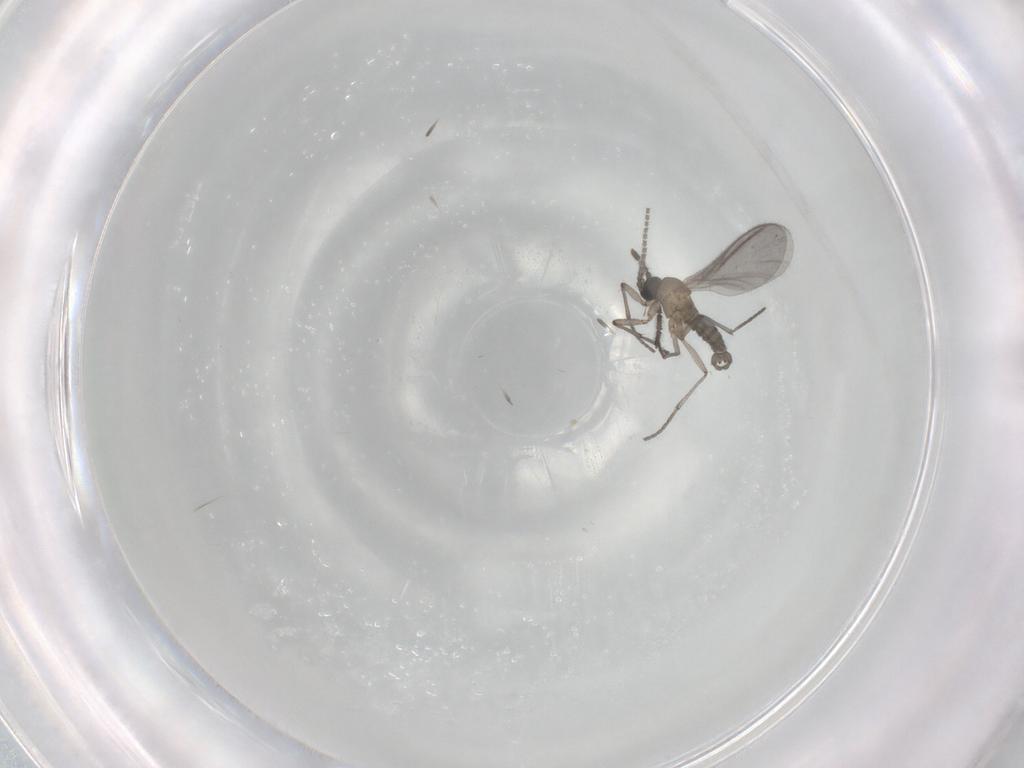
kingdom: Animalia
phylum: Arthropoda
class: Insecta
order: Diptera
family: Sciaridae
